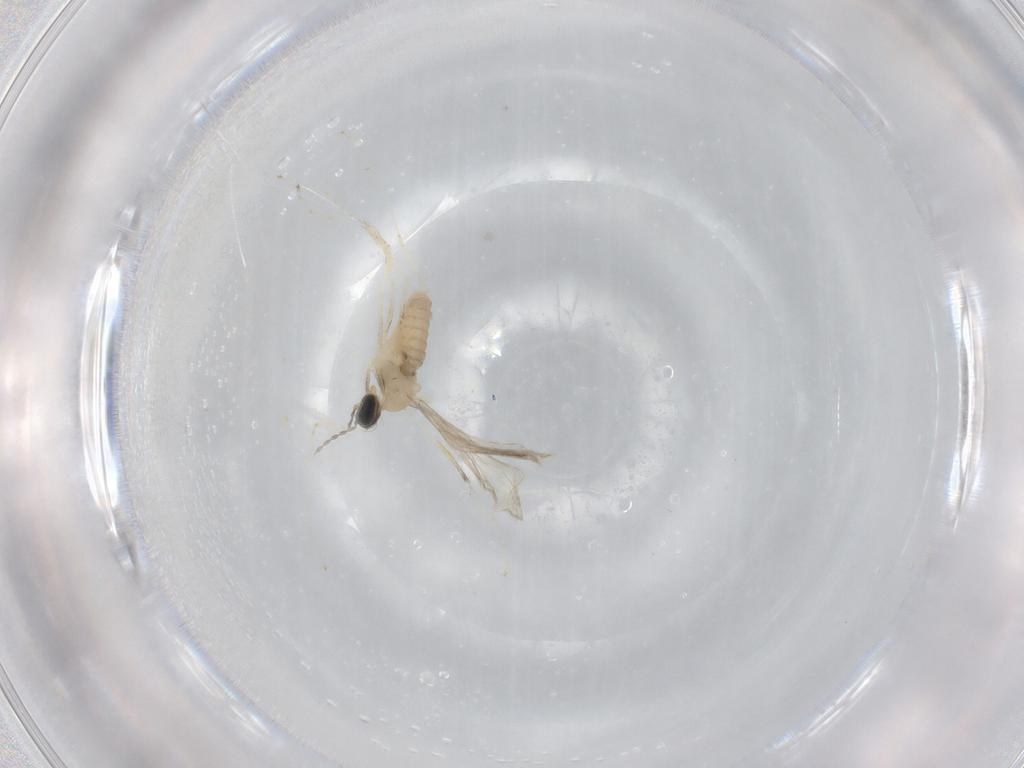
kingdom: Animalia
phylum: Arthropoda
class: Insecta
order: Diptera
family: Cecidomyiidae
